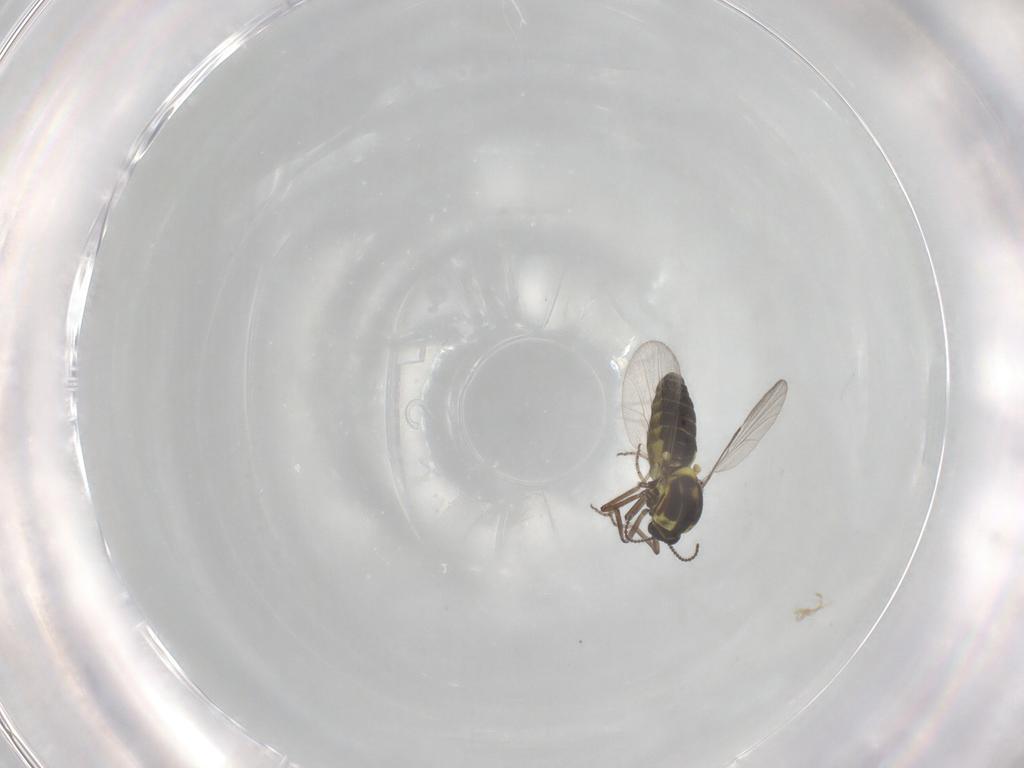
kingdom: Animalia
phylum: Arthropoda
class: Insecta
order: Diptera
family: Ceratopogonidae
